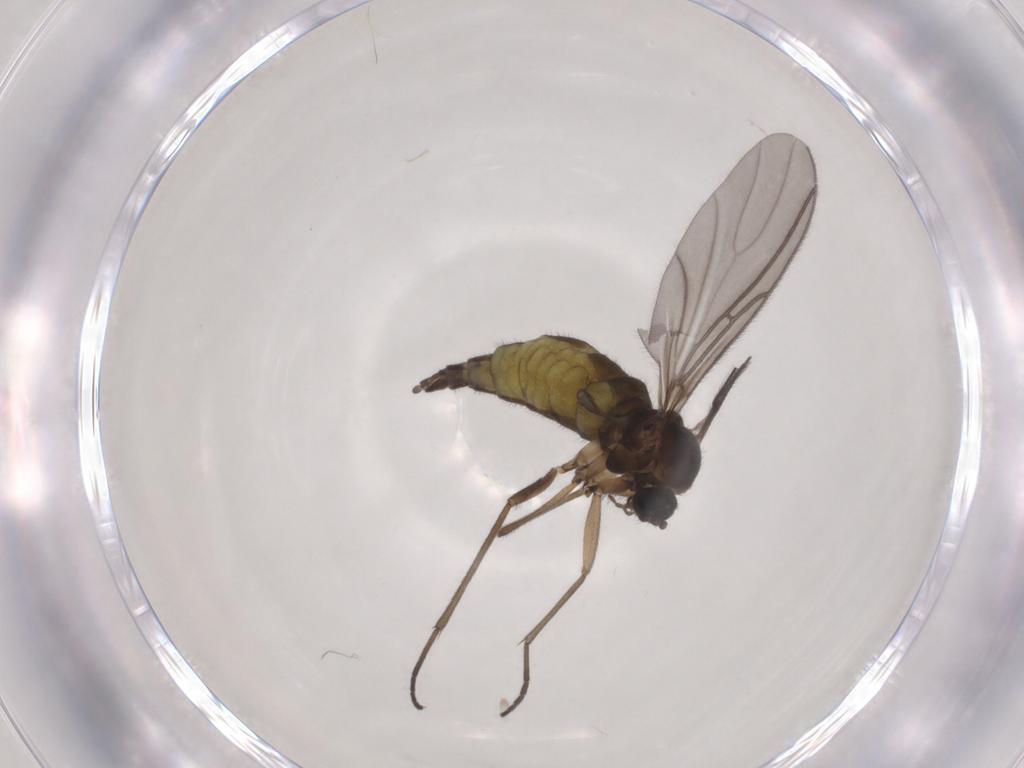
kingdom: Animalia
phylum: Arthropoda
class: Insecta
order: Diptera
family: Sciaridae
